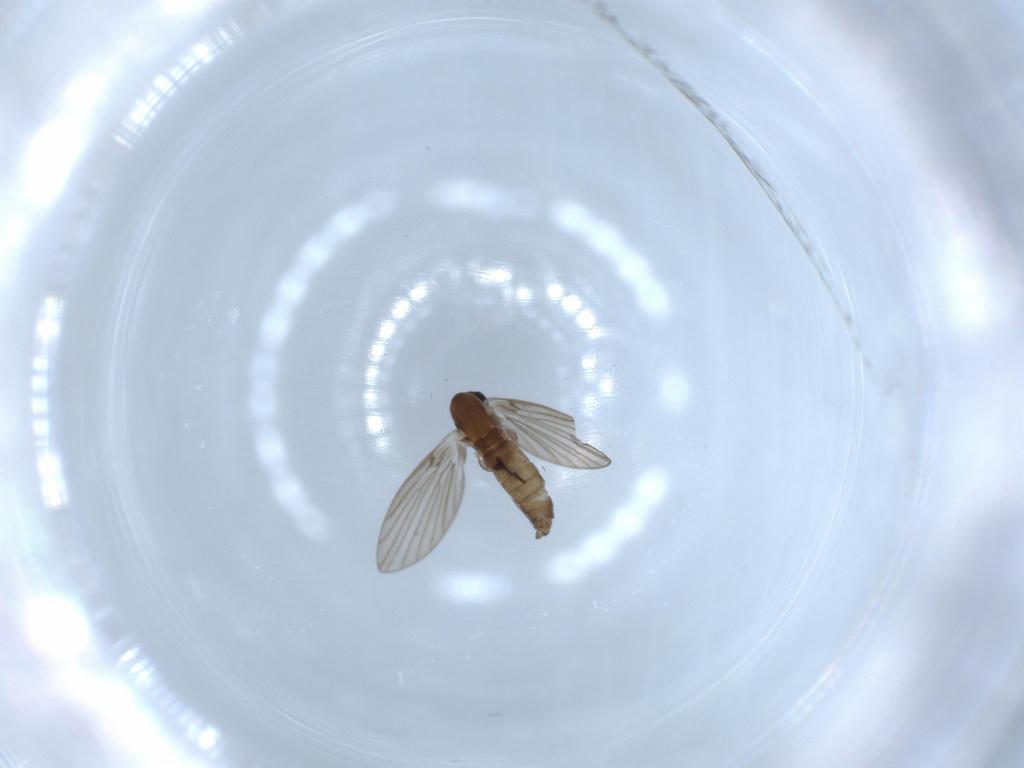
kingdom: Animalia
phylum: Arthropoda
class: Insecta
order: Diptera
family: Psychodidae
